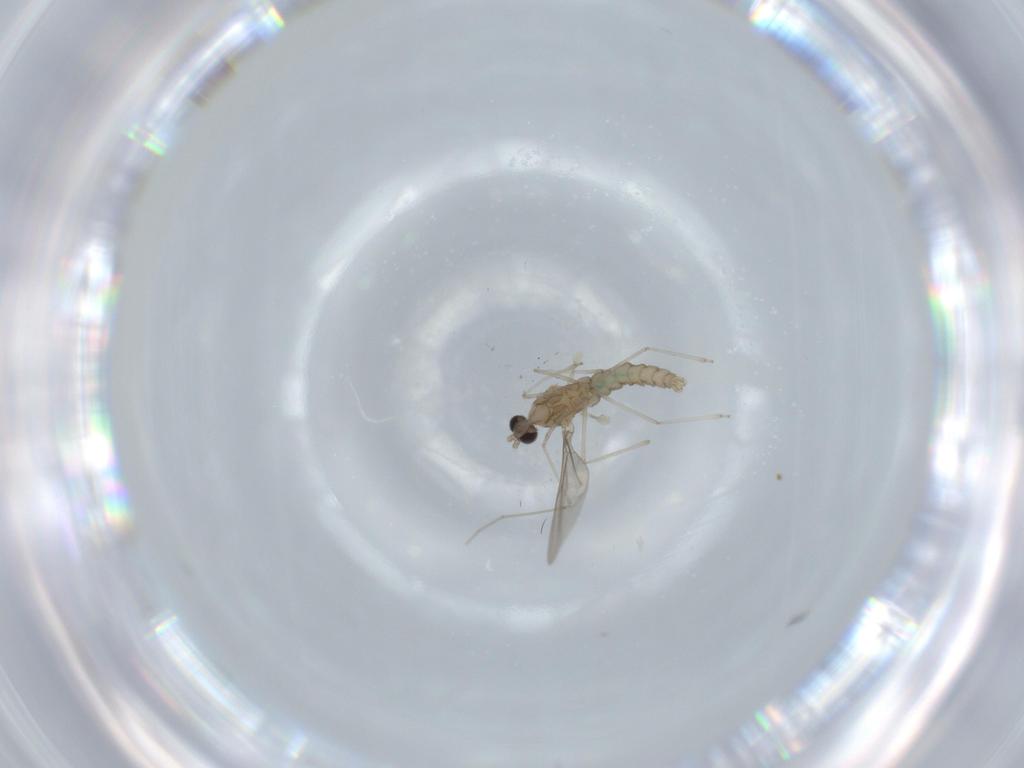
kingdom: Animalia
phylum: Arthropoda
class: Insecta
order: Diptera
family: Cecidomyiidae
